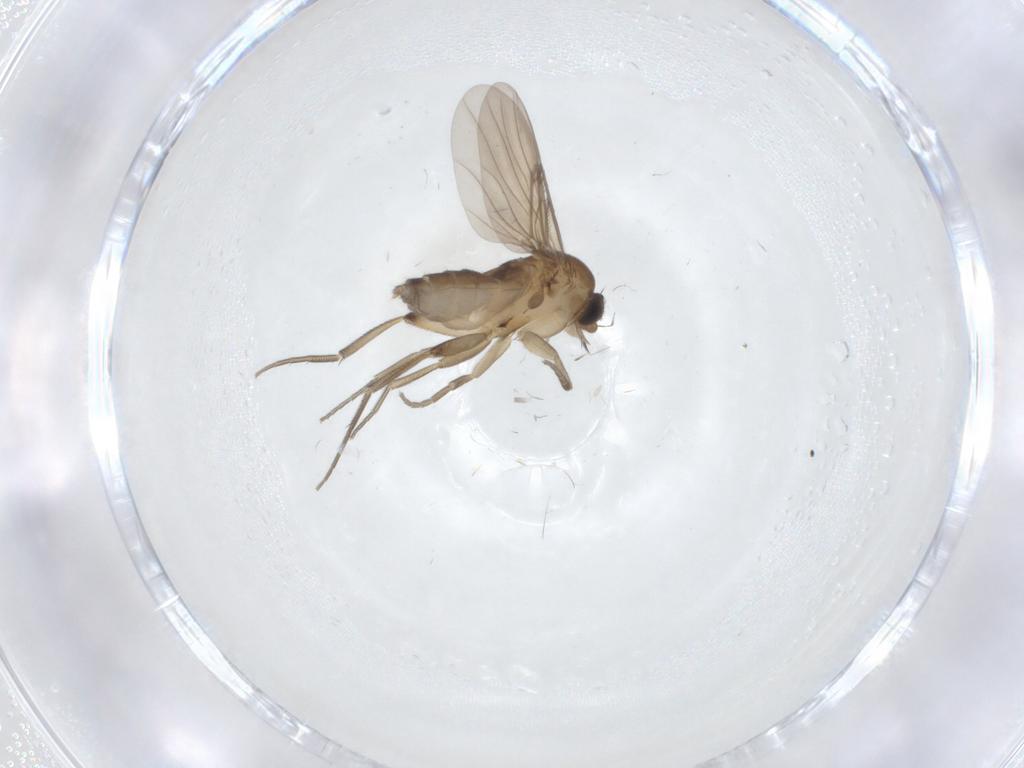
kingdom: Animalia
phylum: Arthropoda
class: Insecta
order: Diptera
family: Phoridae
